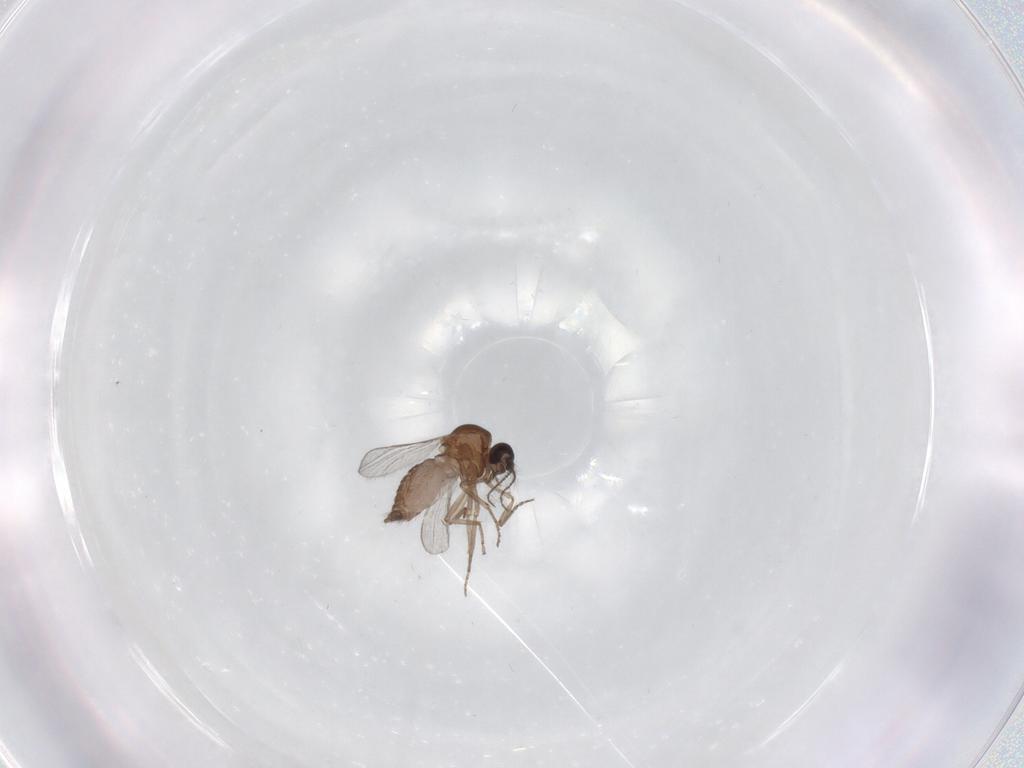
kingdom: Animalia
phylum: Arthropoda
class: Insecta
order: Diptera
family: Ceratopogonidae
